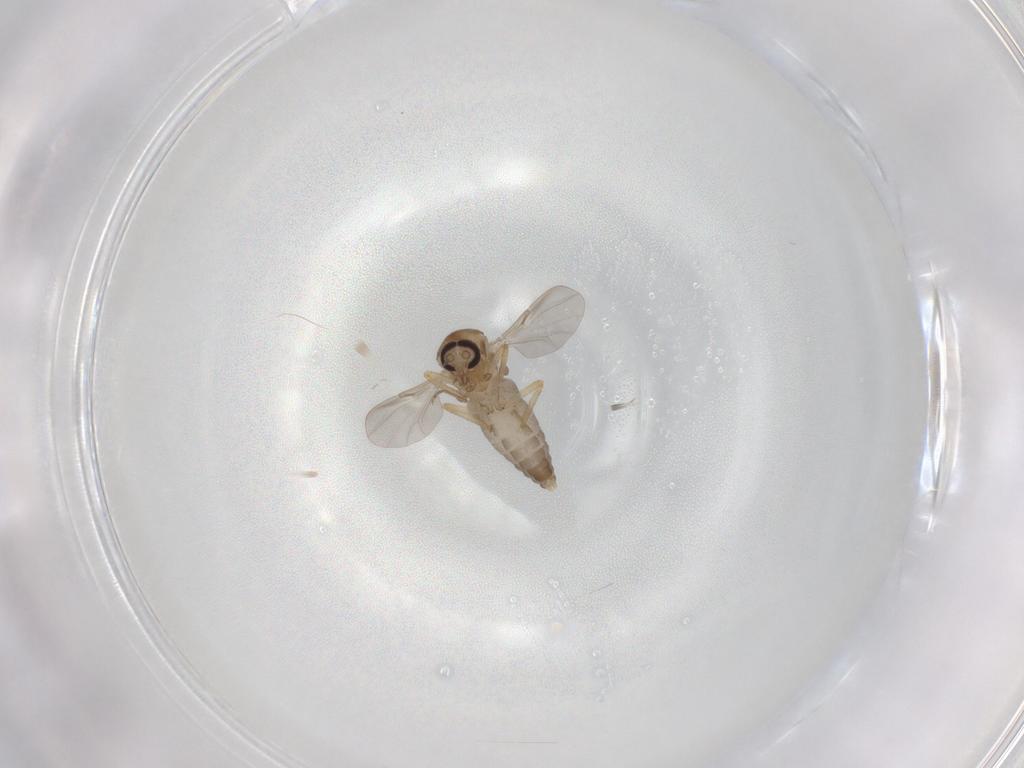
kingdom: Animalia
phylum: Arthropoda
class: Insecta
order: Diptera
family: Ceratopogonidae
